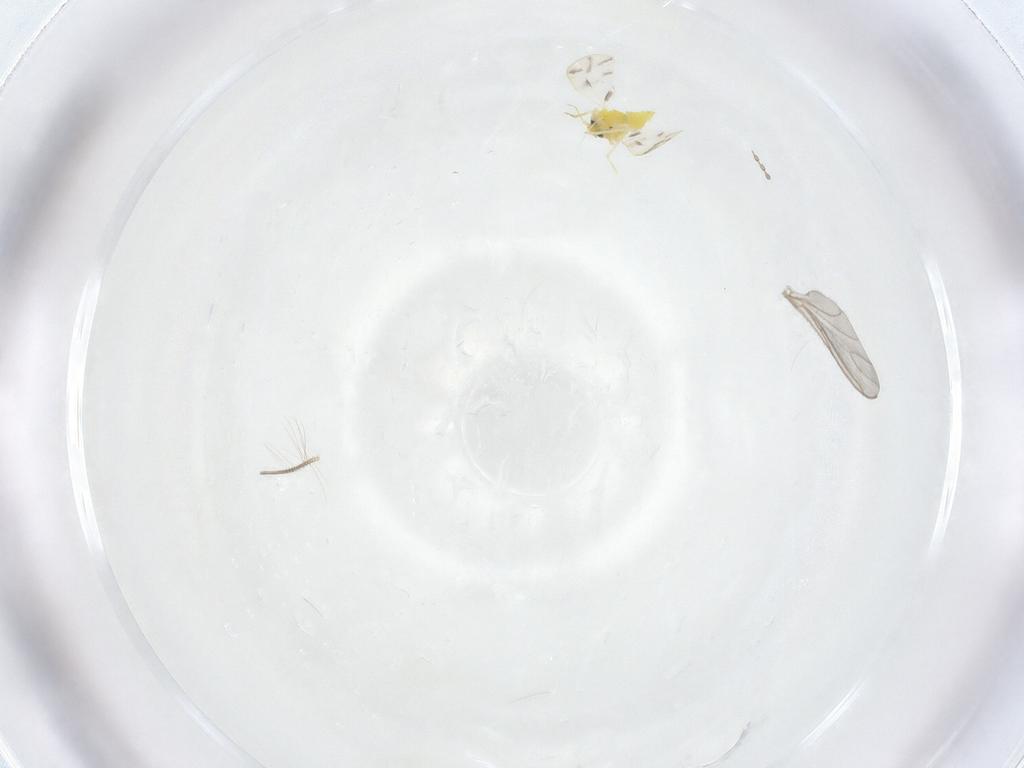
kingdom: Animalia
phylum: Arthropoda
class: Insecta
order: Hemiptera
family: Aleyrodidae
